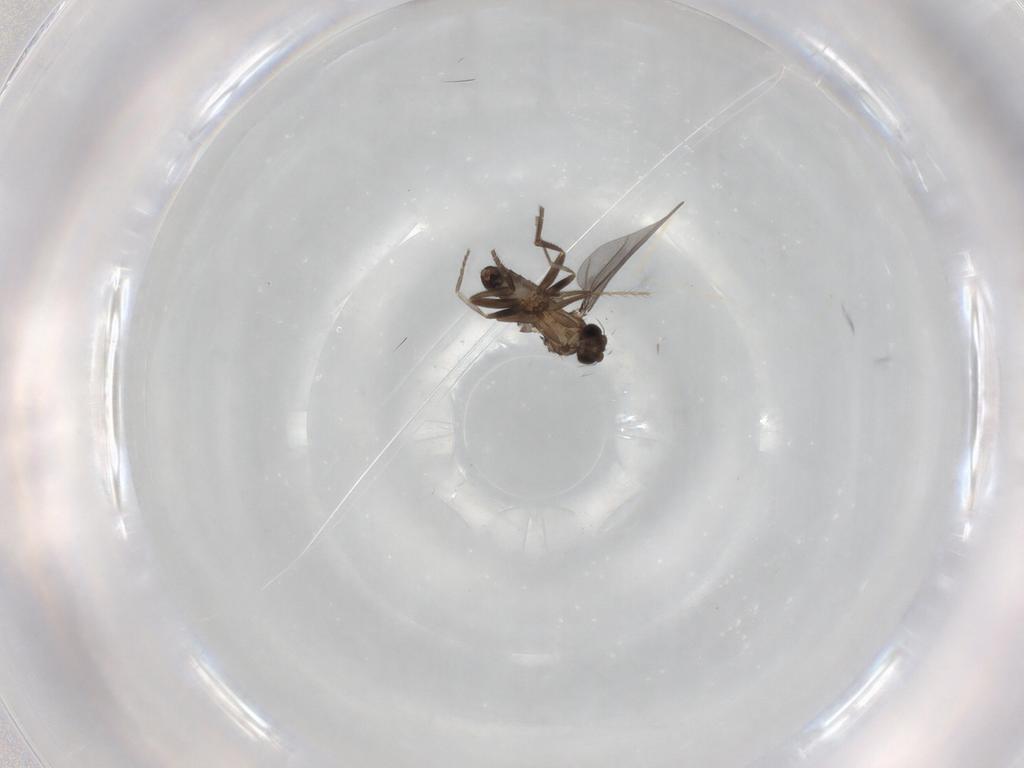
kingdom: Animalia
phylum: Arthropoda
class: Insecta
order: Diptera
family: Phoridae
